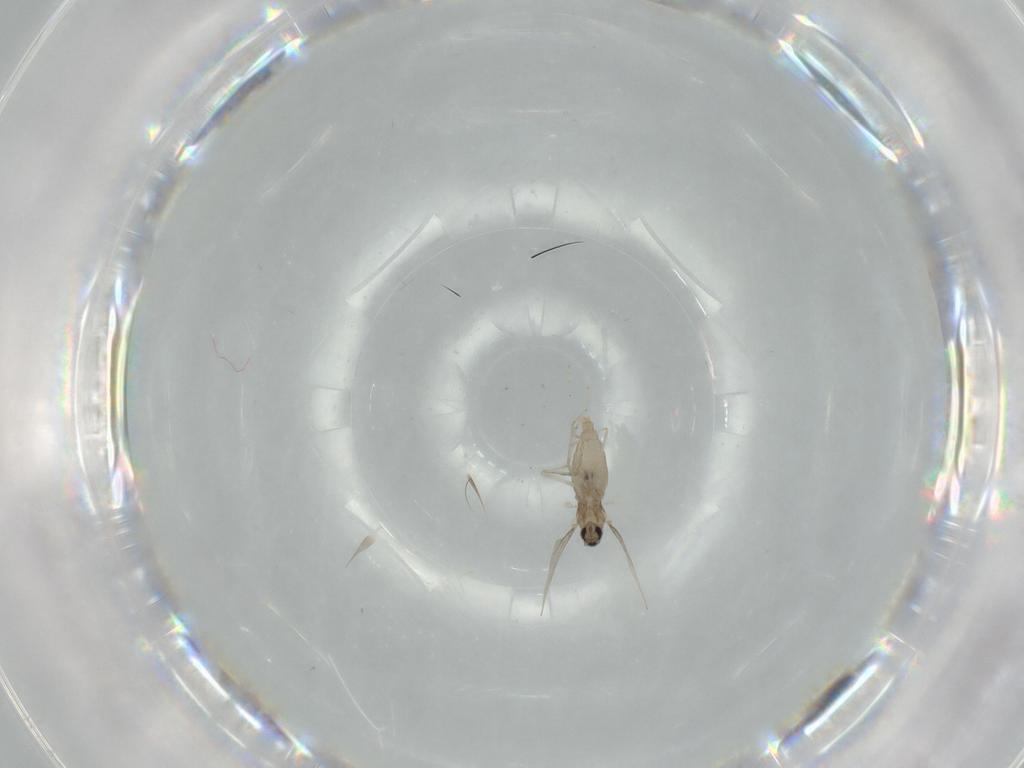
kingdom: Animalia
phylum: Arthropoda
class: Insecta
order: Diptera
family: Cecidomyiidae
